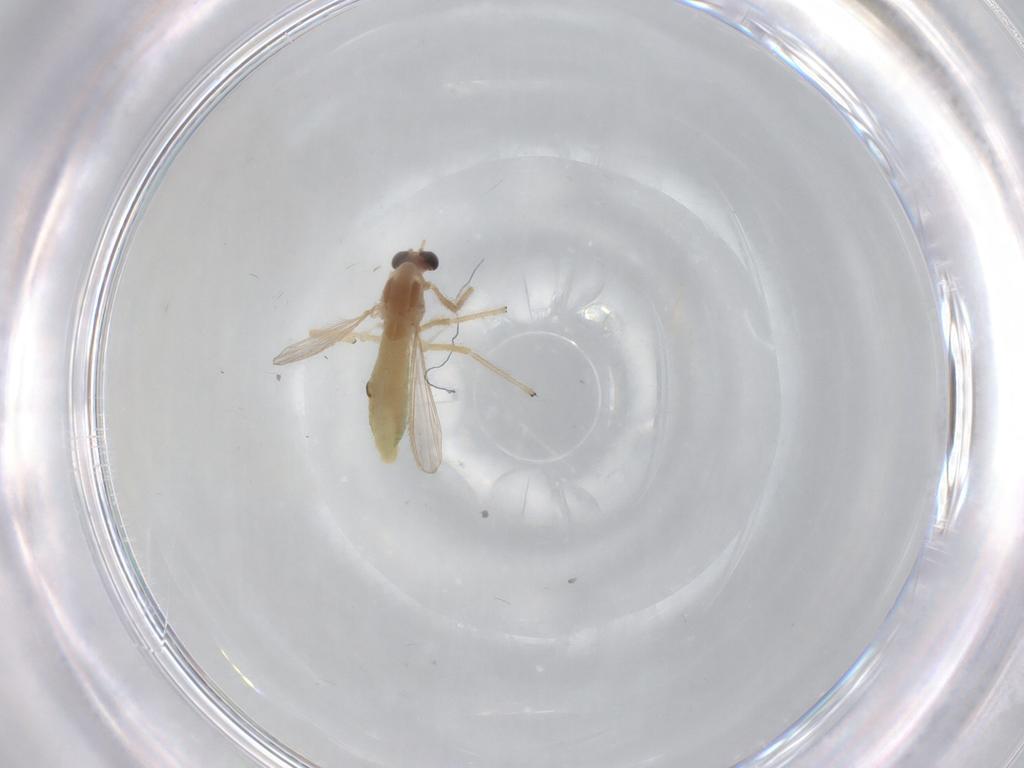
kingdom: Animalia
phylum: Arthropoda
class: Insecta
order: Diptera
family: Chironomidae
